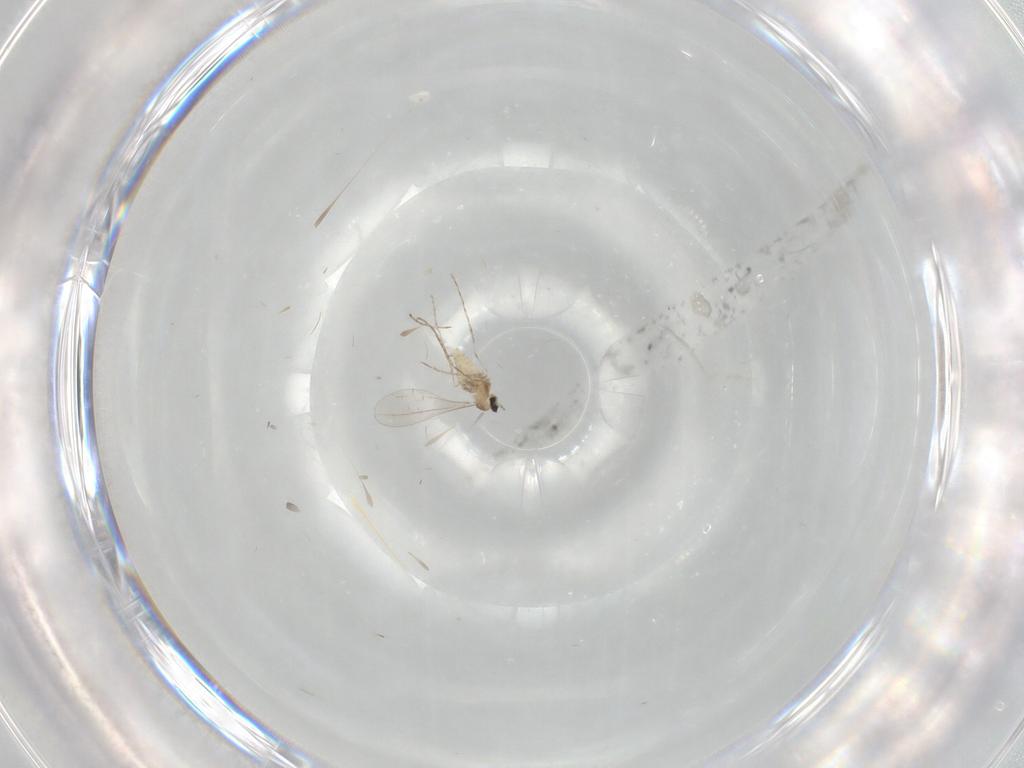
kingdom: Animalia
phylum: Arthropoda
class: Insecta
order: Diptera
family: Cecidomyiidae
